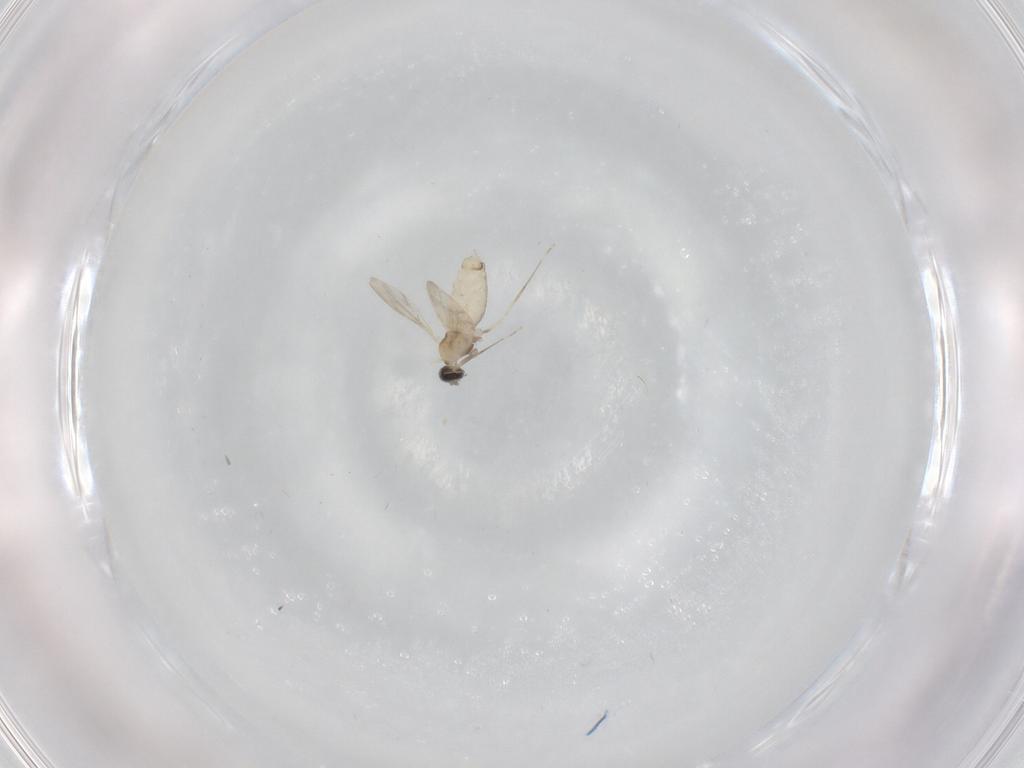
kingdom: Animalia
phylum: Arthropoda
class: Insecta
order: Diptera
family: Cecidomyiidae
